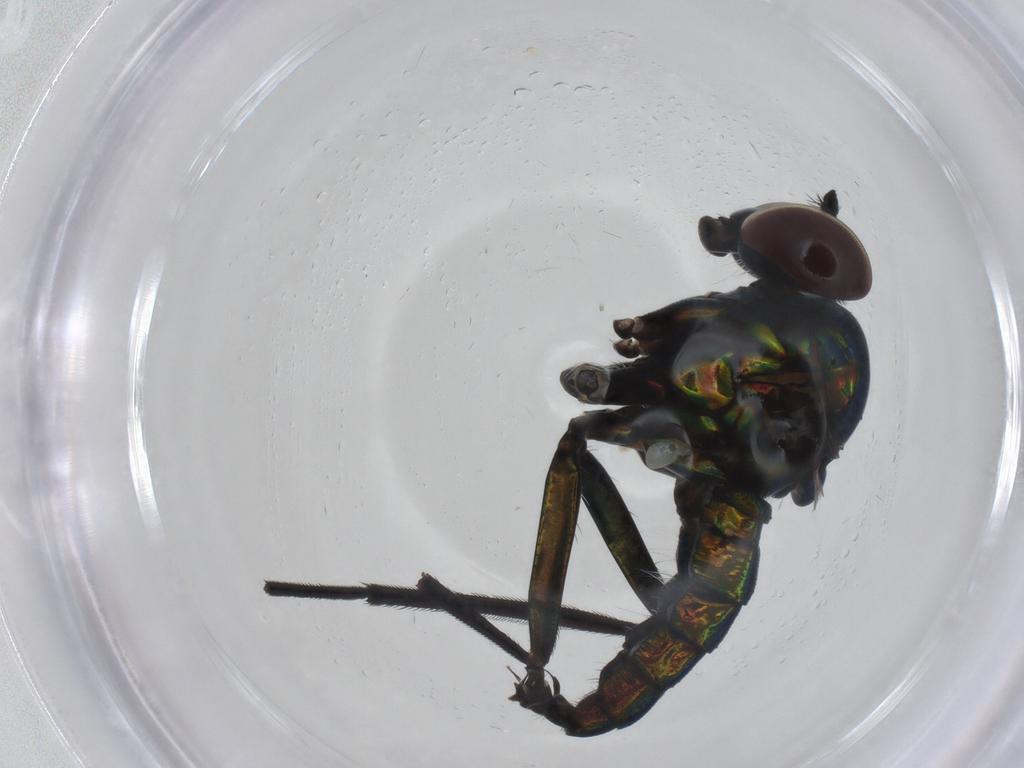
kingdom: Animalia
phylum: Arthropoda
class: Insecta
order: Diptera
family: Dolichopodidae
